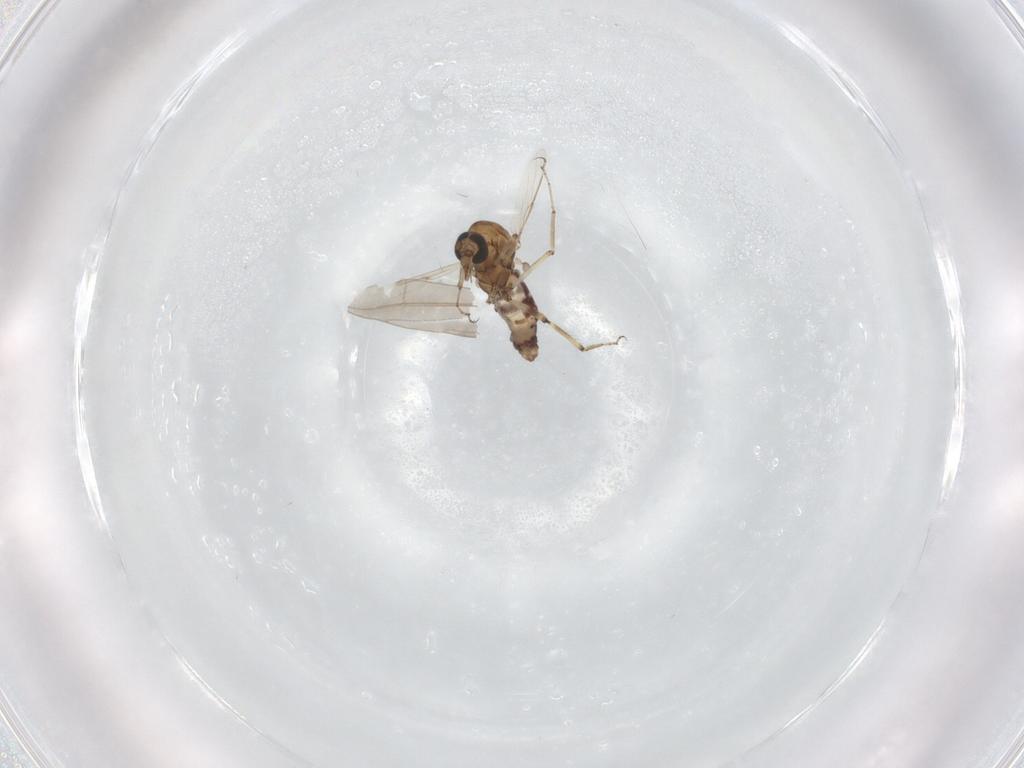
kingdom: Animalia
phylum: Arthropoda
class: Insecta
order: Diptera
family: Ceratopogonidae
